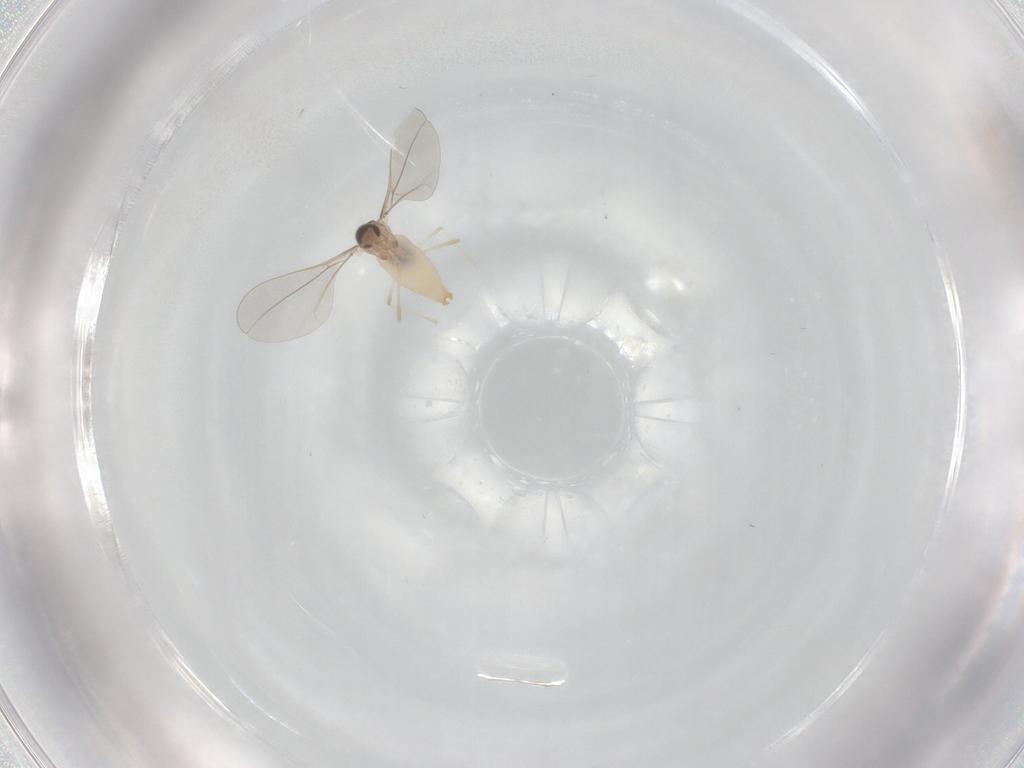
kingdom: Animalia
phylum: Arthropoda
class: Insecta
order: Diptera
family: Cecidomyiidae
